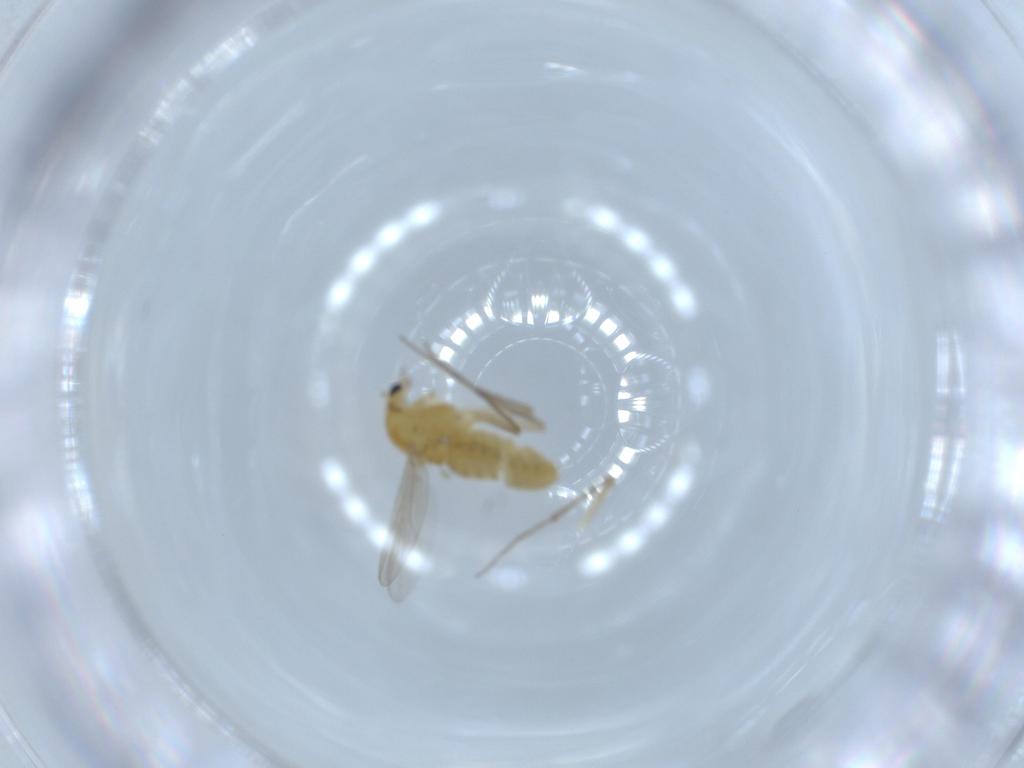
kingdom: Animalia
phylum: Arthropoda
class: Insecta
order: Diptera
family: Chironomidae
